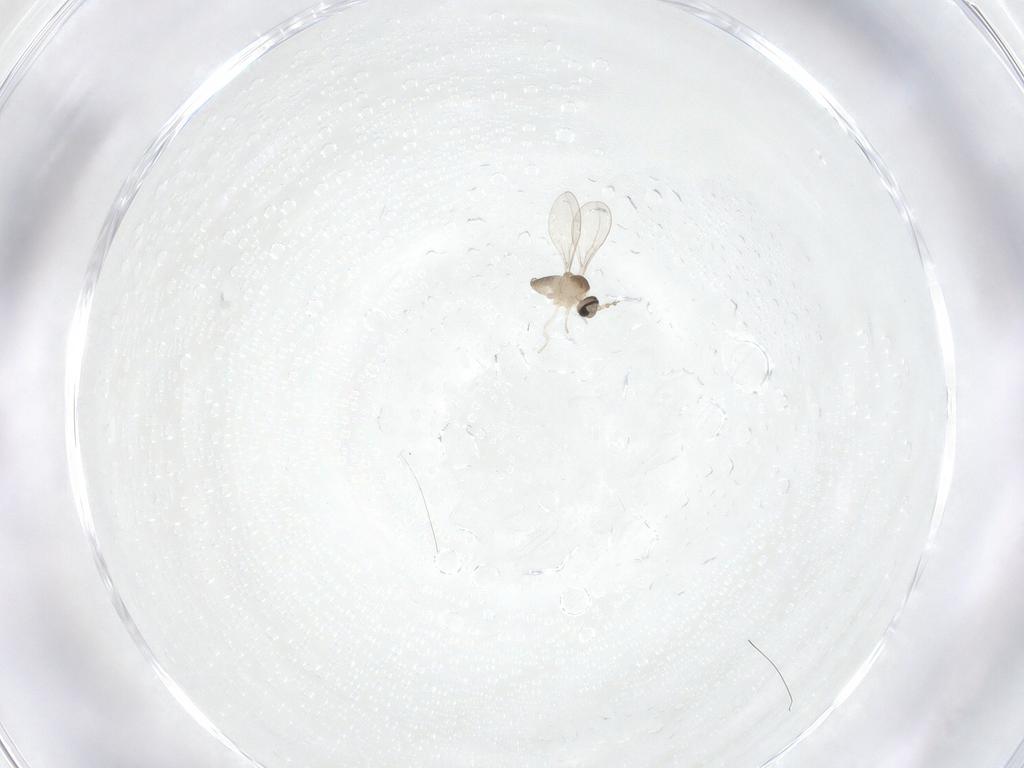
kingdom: Animalia
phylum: Arthropoda
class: Insecta
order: Diptera
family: Cecidomyiidae
